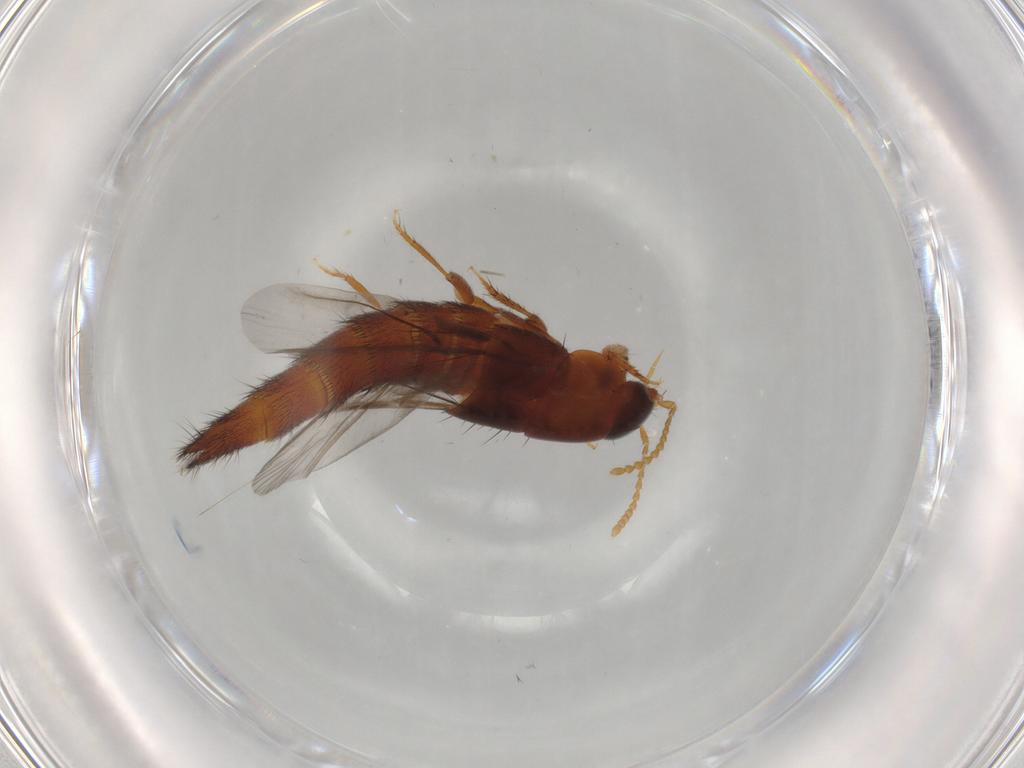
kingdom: Animalia
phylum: Arthropoda
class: Insecta
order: Coleoptera
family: Staphylinidae
